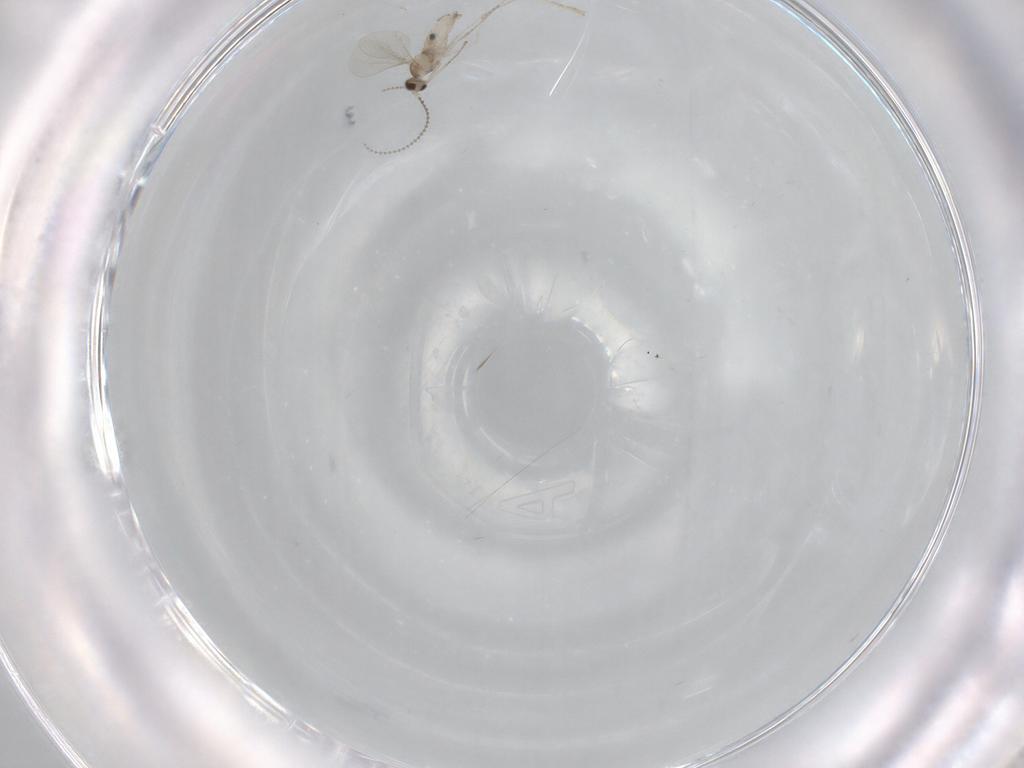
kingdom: Animalia
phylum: Arthropoda
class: Insecta
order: Diptera
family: Cecidomyiidae
